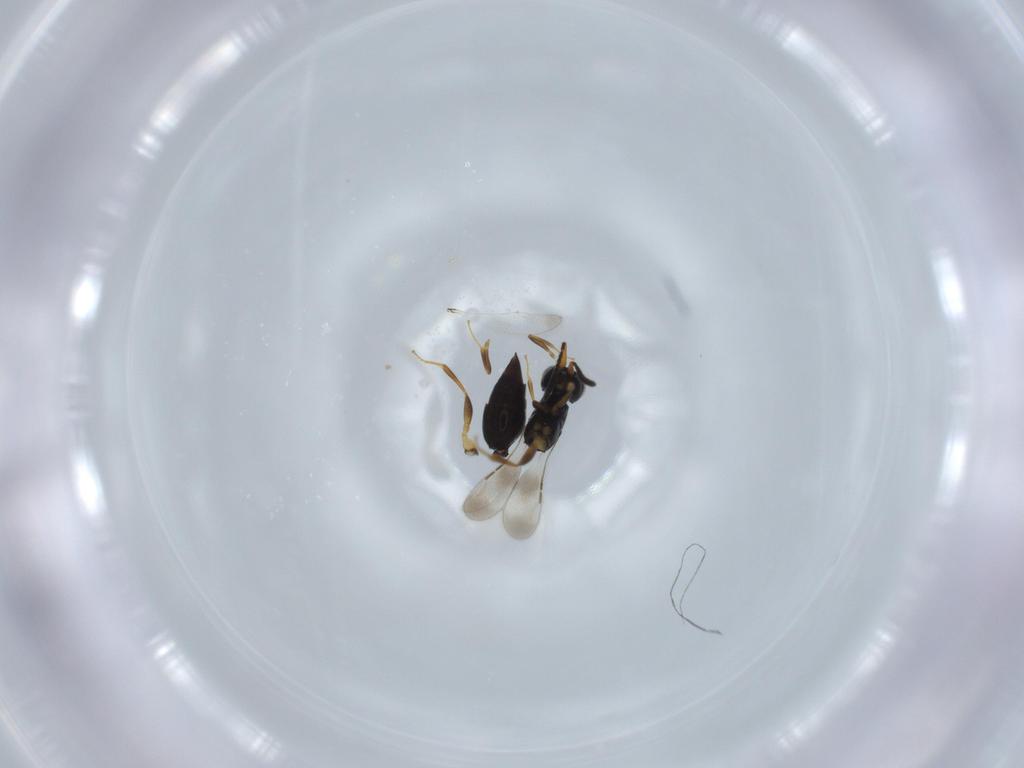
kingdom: Animalia
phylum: Arthropoda
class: Insecta
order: Hymenoptera
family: Ceraphronidae
